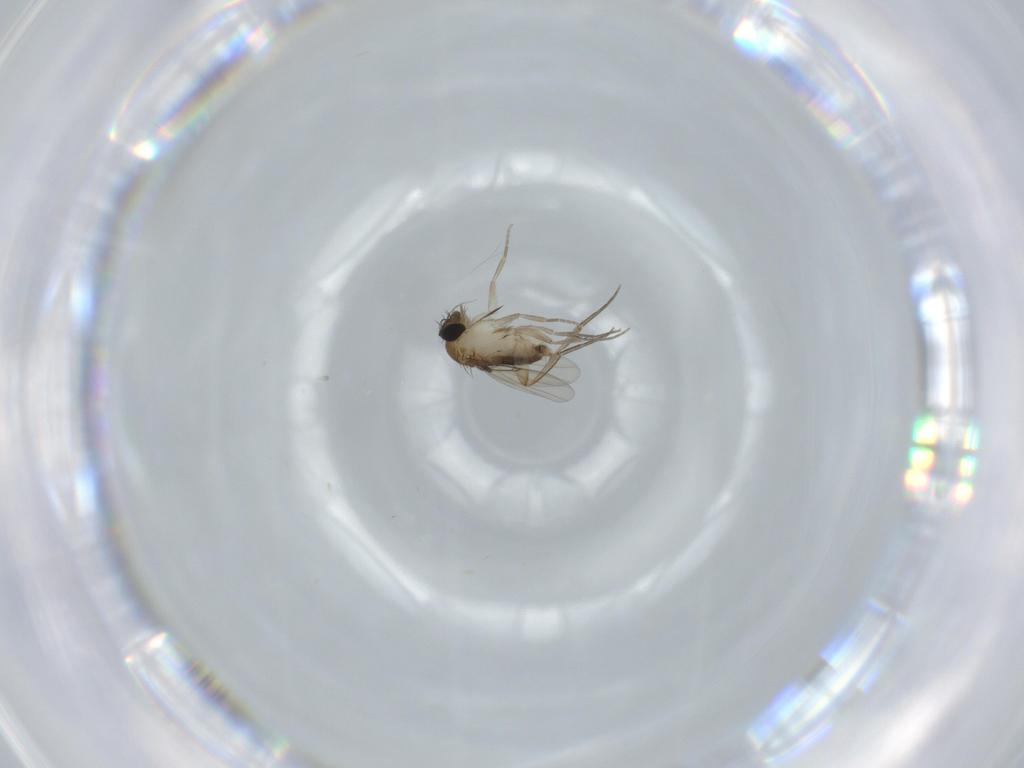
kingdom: Animalia
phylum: Arthropoda
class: Insecta
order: Diptera
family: Phoridae
